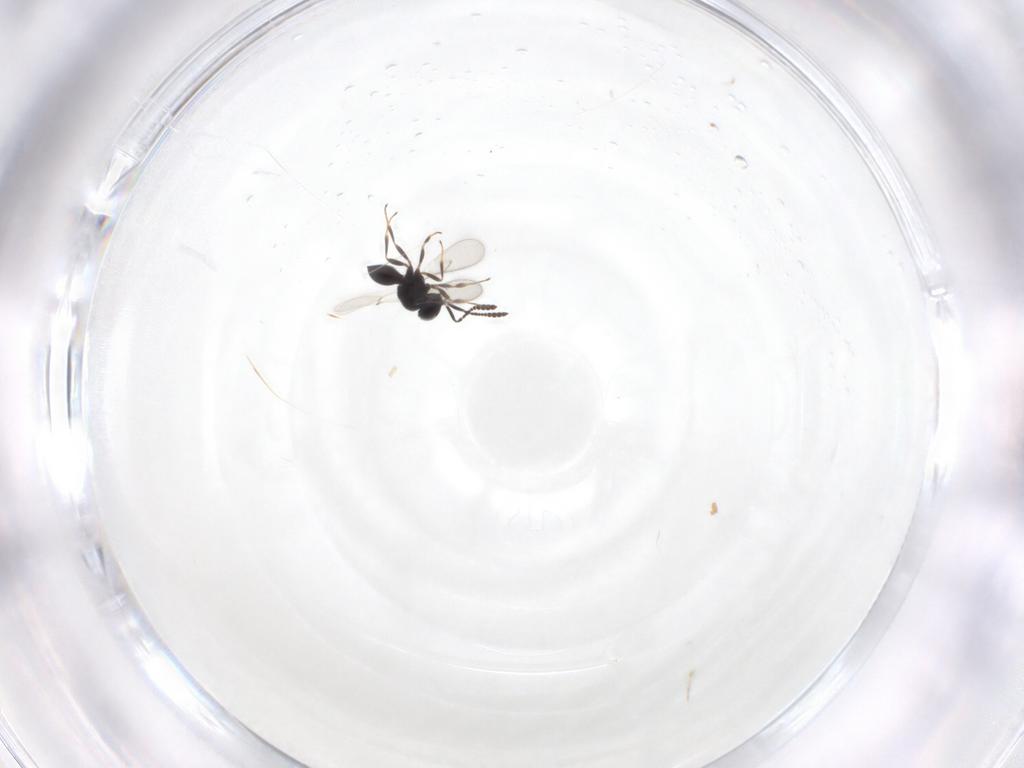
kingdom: Animalia
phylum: Arthropoda
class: Insecta
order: Hymenoptera
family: Scelionidae
